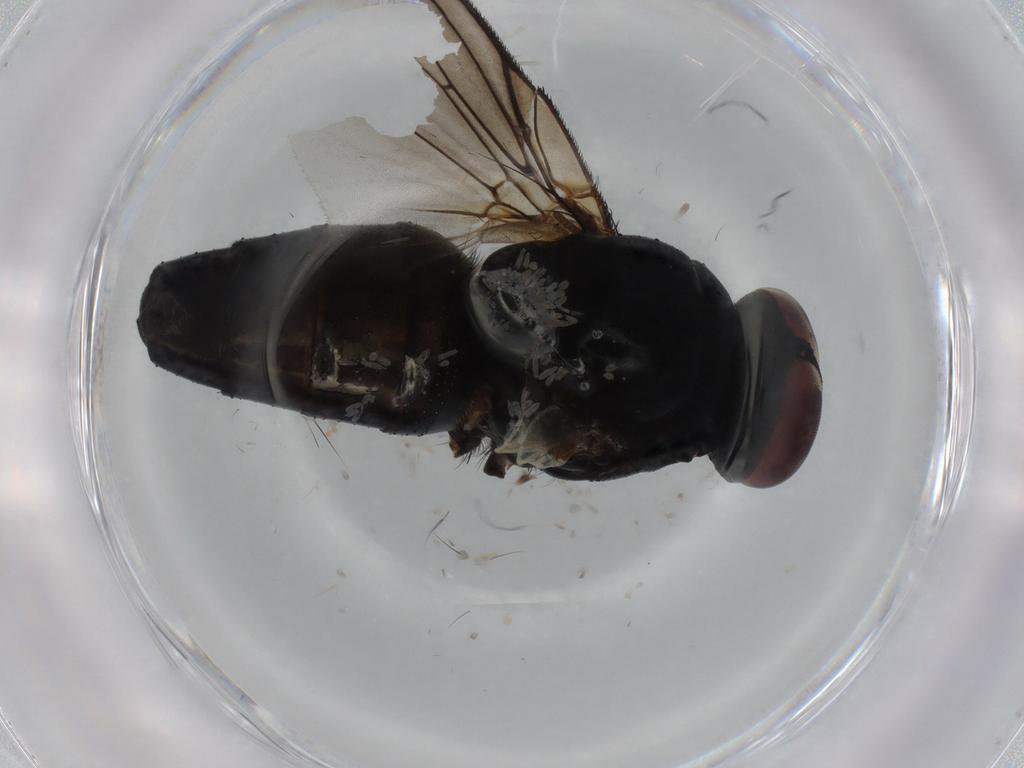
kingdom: Animalia
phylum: Arthropoda
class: Insecta
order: Diptera
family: Muscidae
